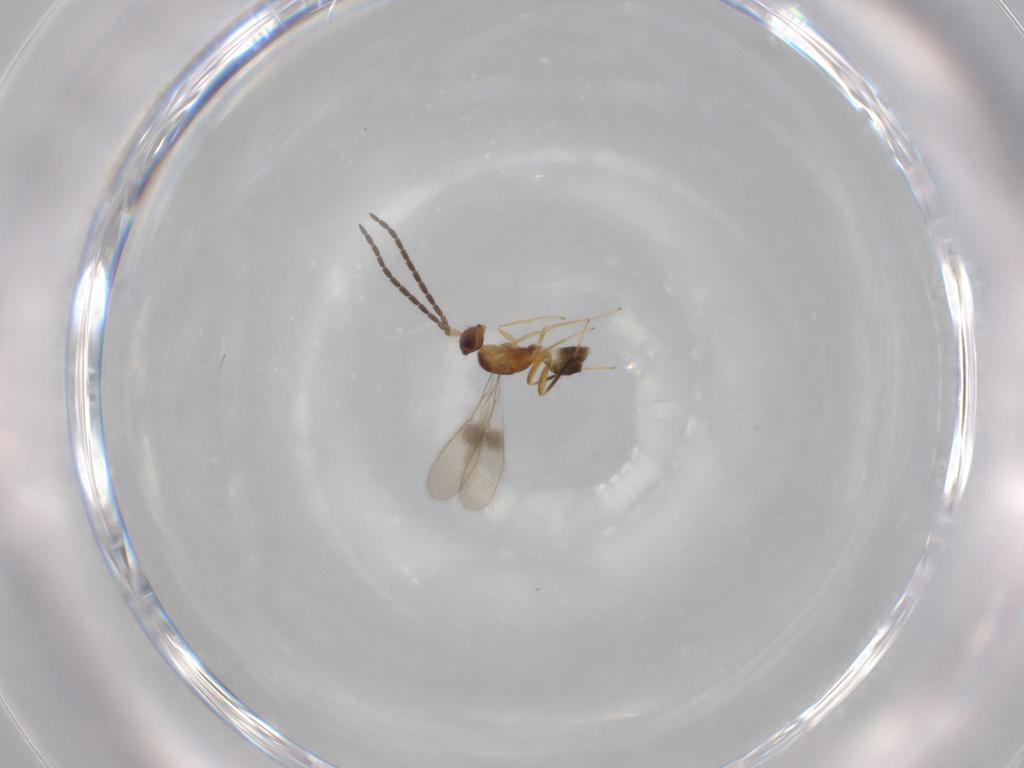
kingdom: Animalia
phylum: Arthropoda
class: Insecta
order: Hymenoptera
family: Mymaridae
